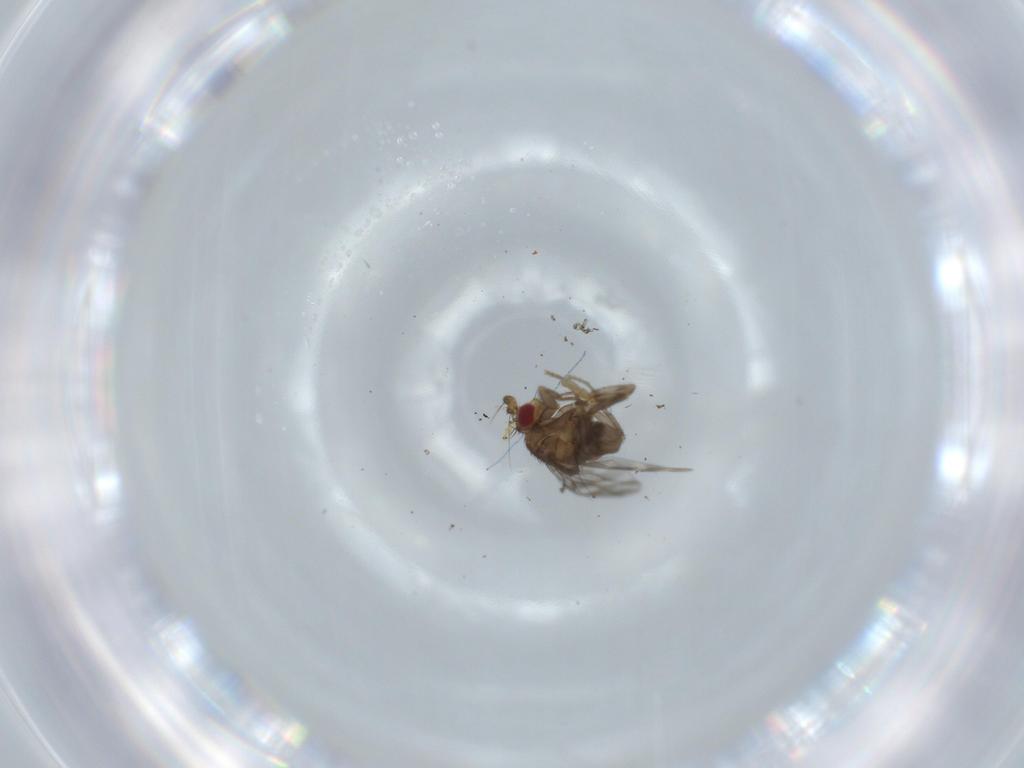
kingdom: Animalia
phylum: Arthropoda
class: Insecta
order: Diptera
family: Sphaeroceridae
